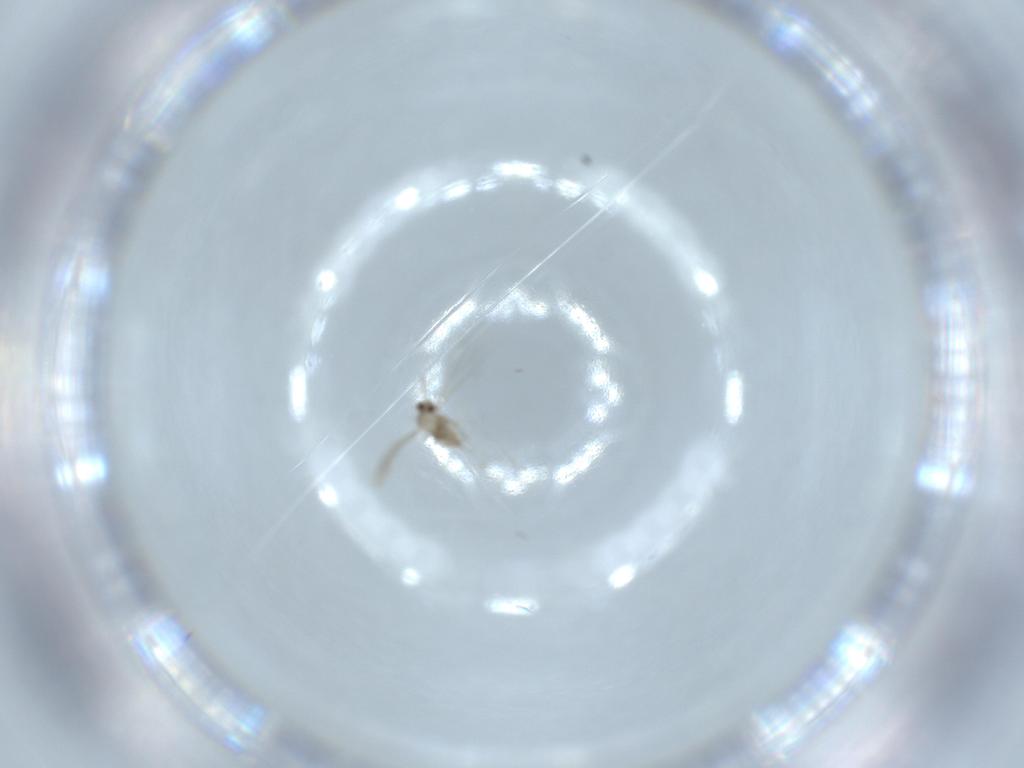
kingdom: Animalia
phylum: Arthropoda
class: Insecta
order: Diptera
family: Cecidomyiidae
